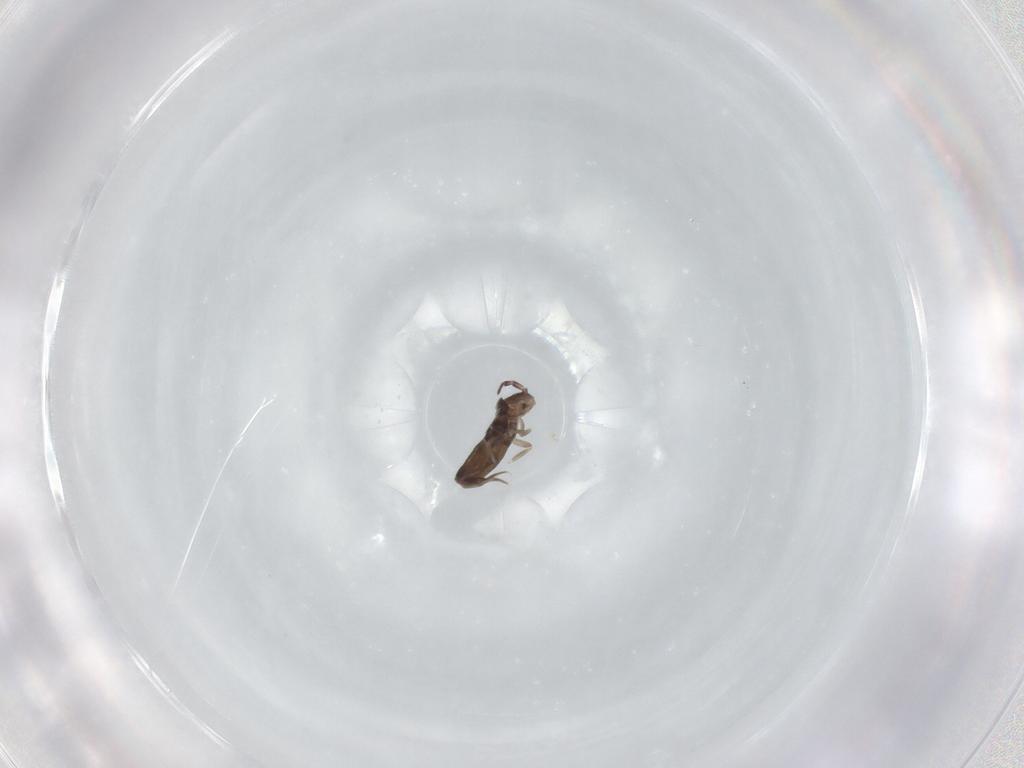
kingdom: Animalia
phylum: Arthropoda
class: Collembola
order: Entomobryomorpha
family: Entomobryidae
